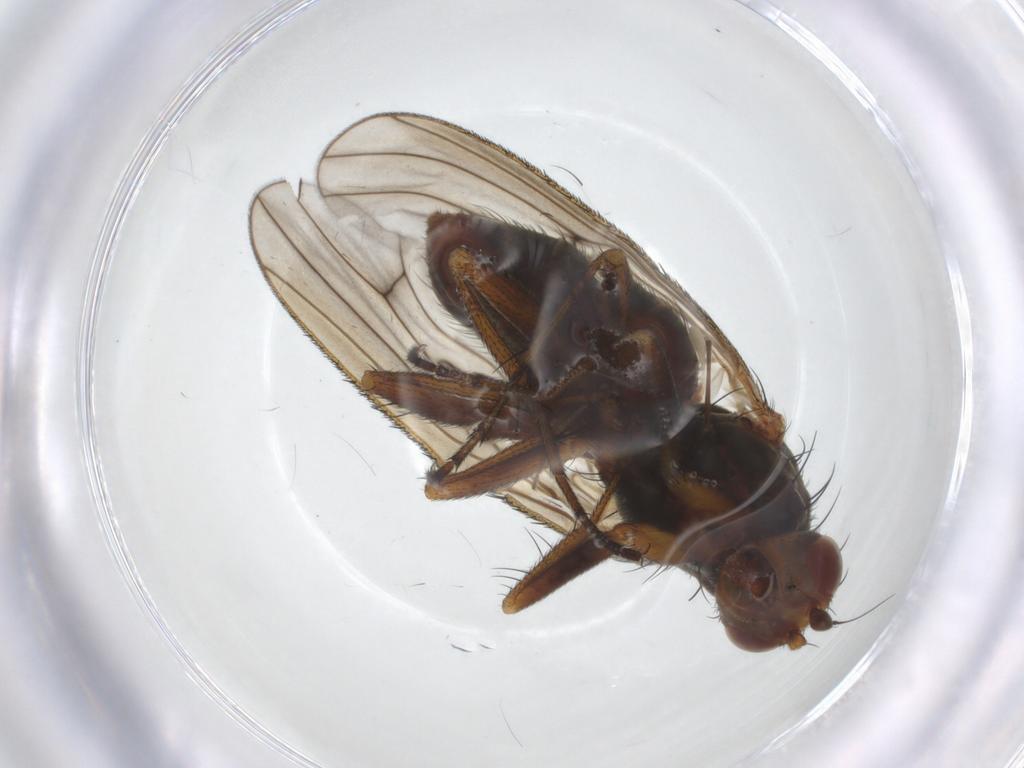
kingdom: Animalia
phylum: Arthropoda
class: Insecta
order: Diptera
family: Heleomyzidae
